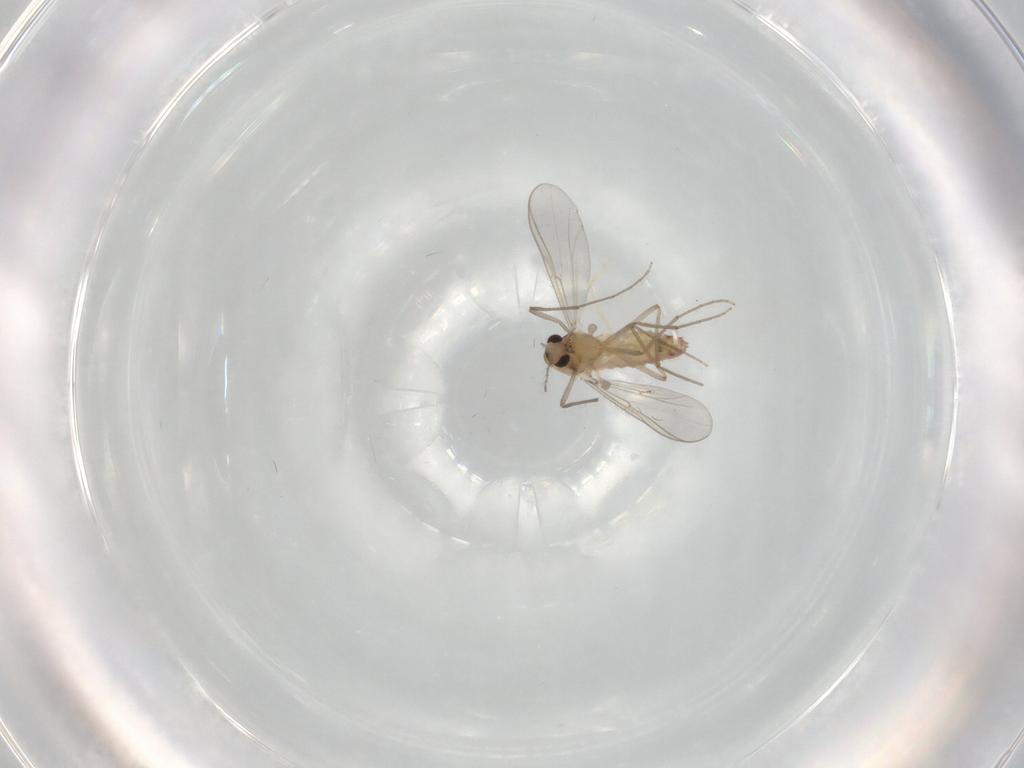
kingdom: Animalia
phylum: Arthropoda
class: Insecta
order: Diptera
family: Chironomidae
